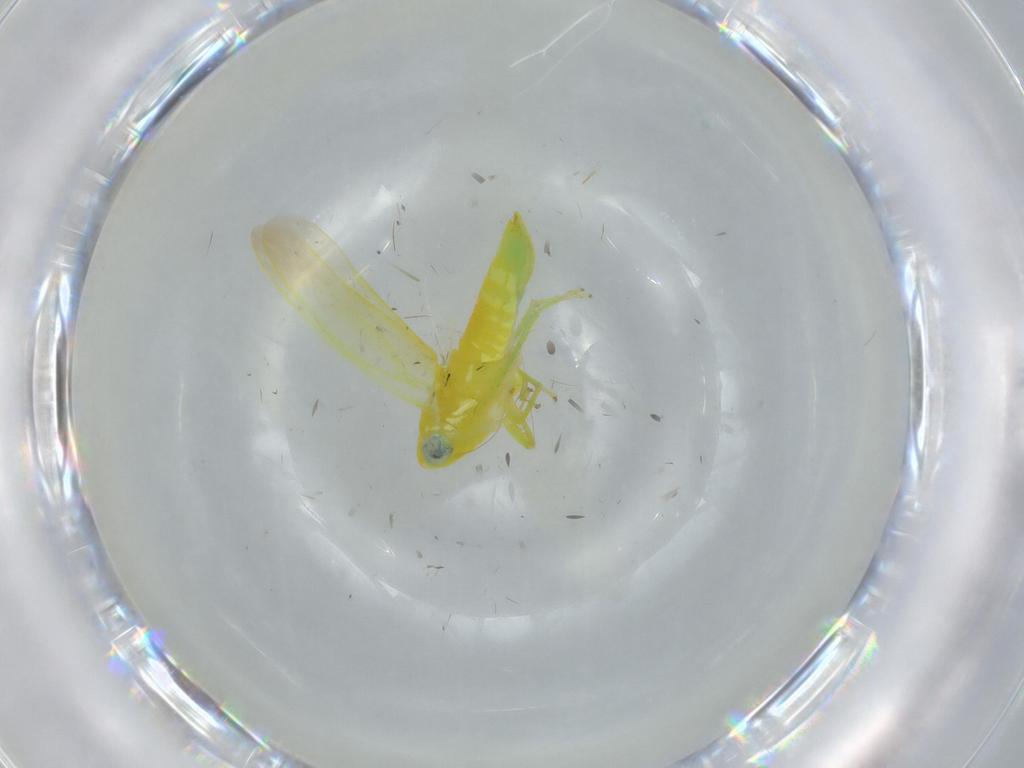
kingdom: Animalia
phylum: Arthropoda
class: Insecta
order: Hemiptera
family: Cicadellidae
